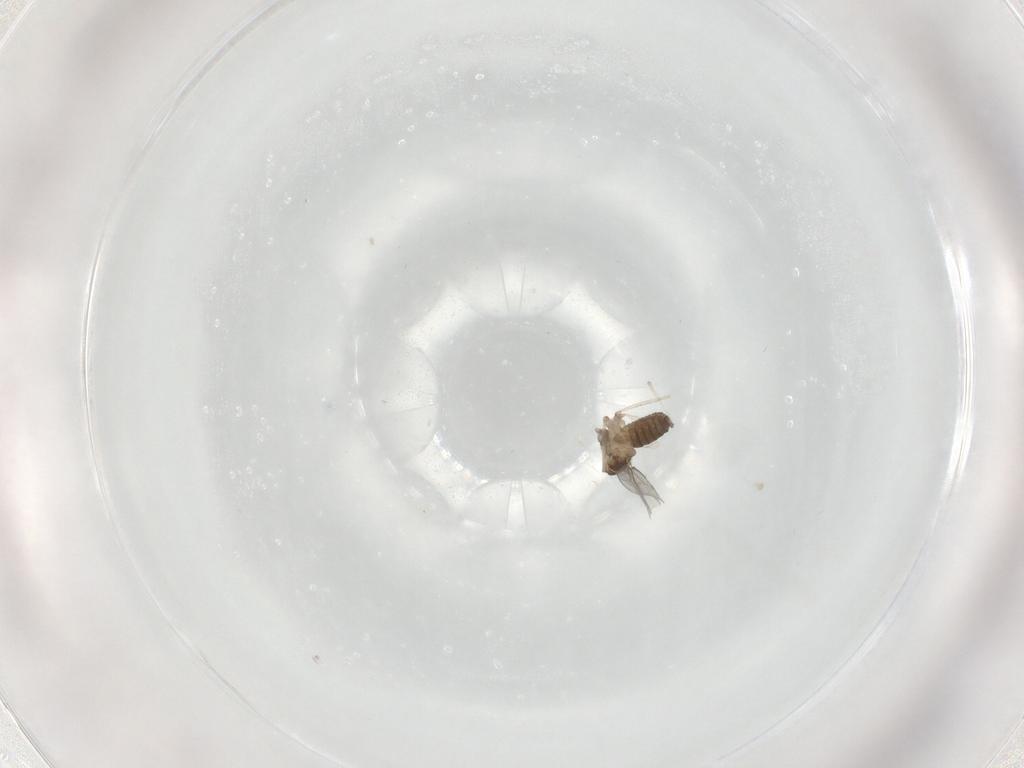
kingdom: Animalia
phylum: Arthropoda
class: Insecta
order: Diptera
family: Cecidomyiidae
